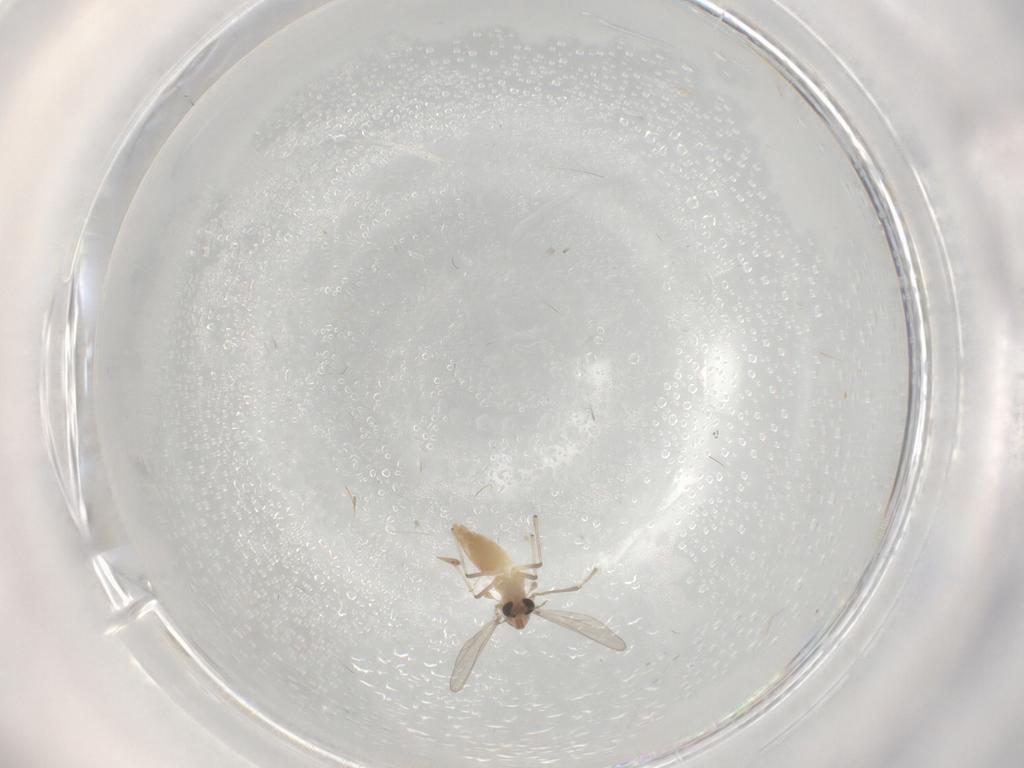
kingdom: Animalia
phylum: Arthropoda
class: Insecta
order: Diptera
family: Chironomidae
